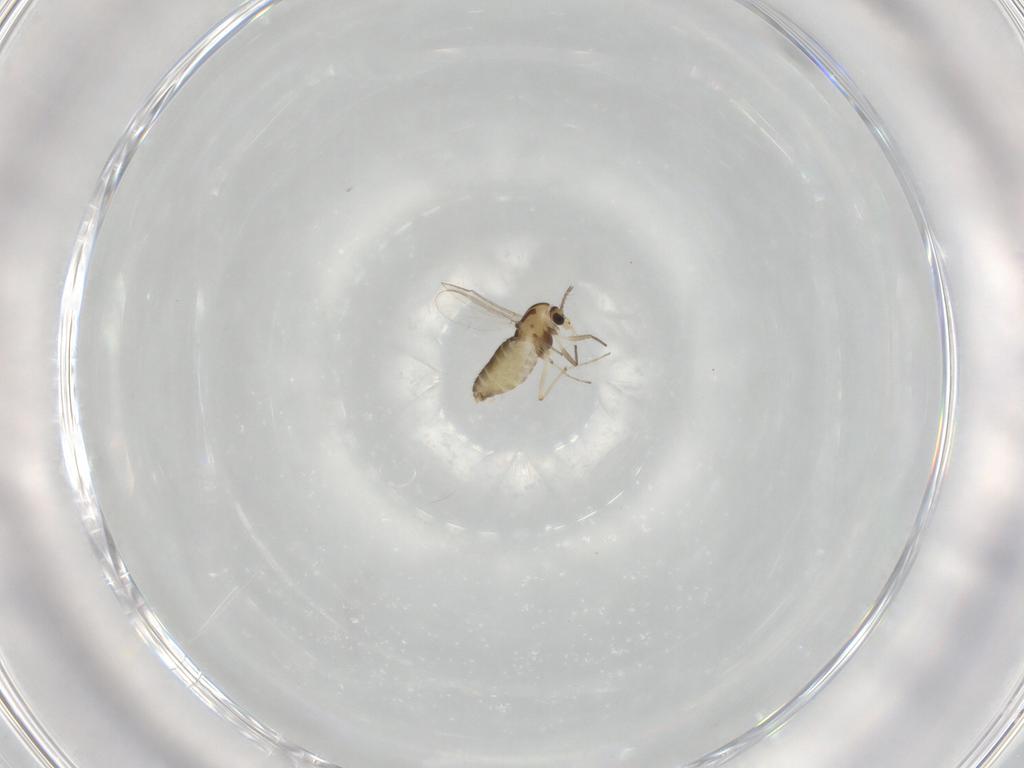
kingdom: Animalia
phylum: Arthropoda
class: Insecta
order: Diptera
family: Chironomidae
